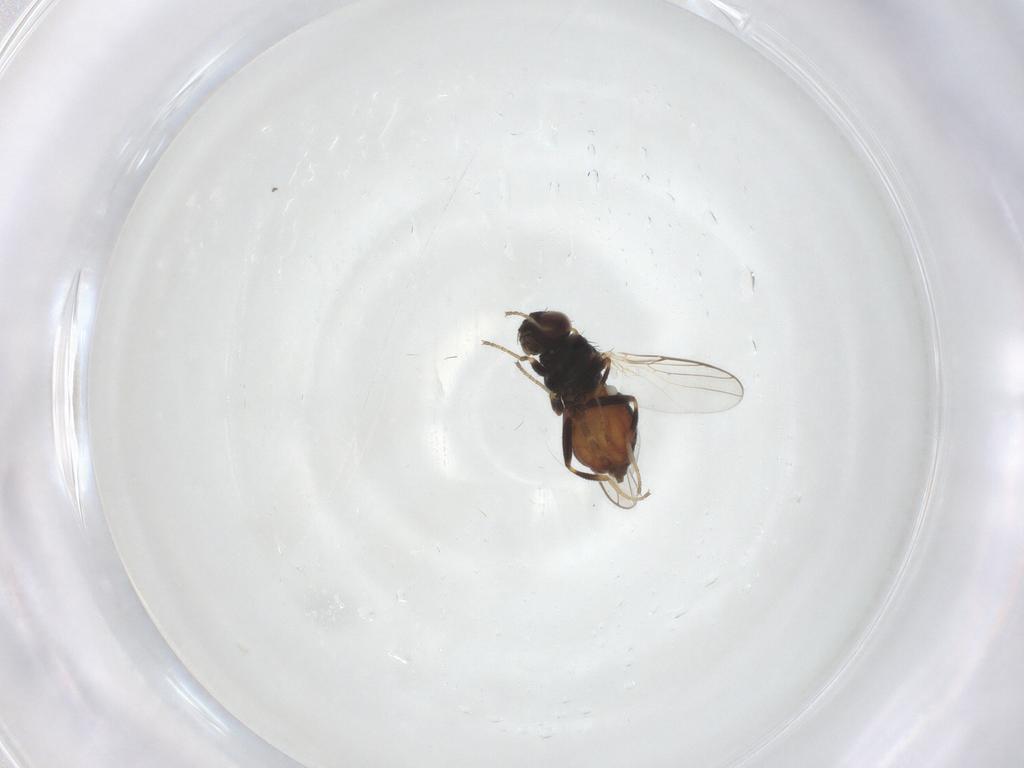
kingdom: Animalia
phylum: Arthropoda
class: Insecta
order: Diptera
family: Chloropidae
